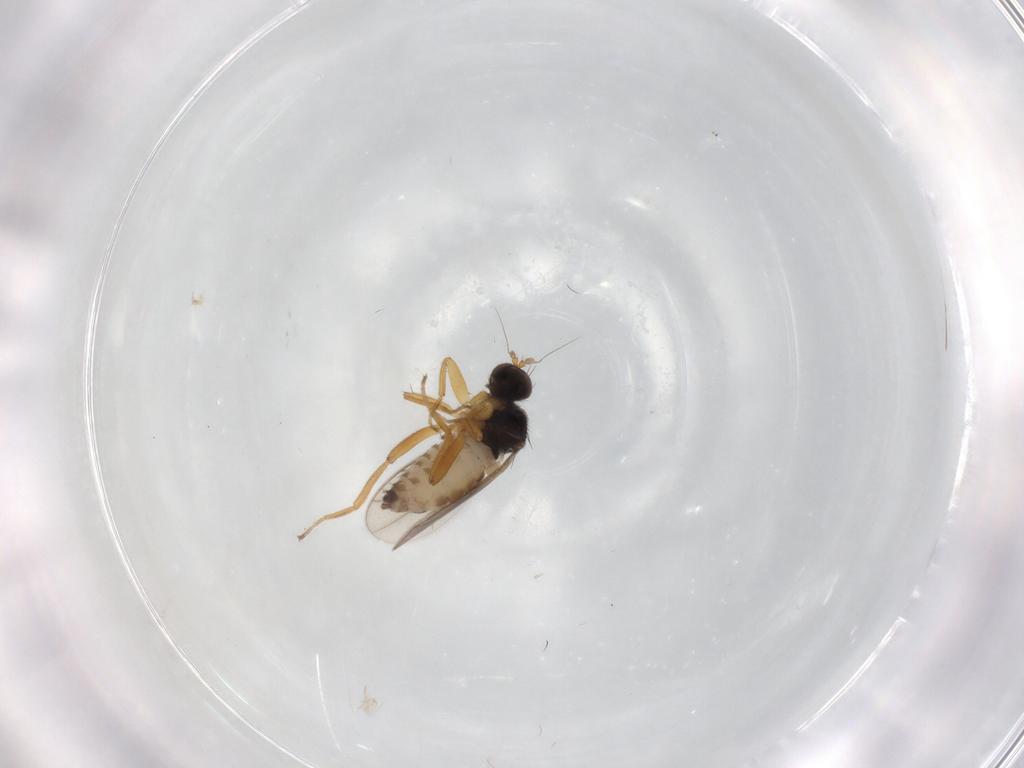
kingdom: Animalia
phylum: Arthropoda
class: Insecta
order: Diptera
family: Hybotidae
